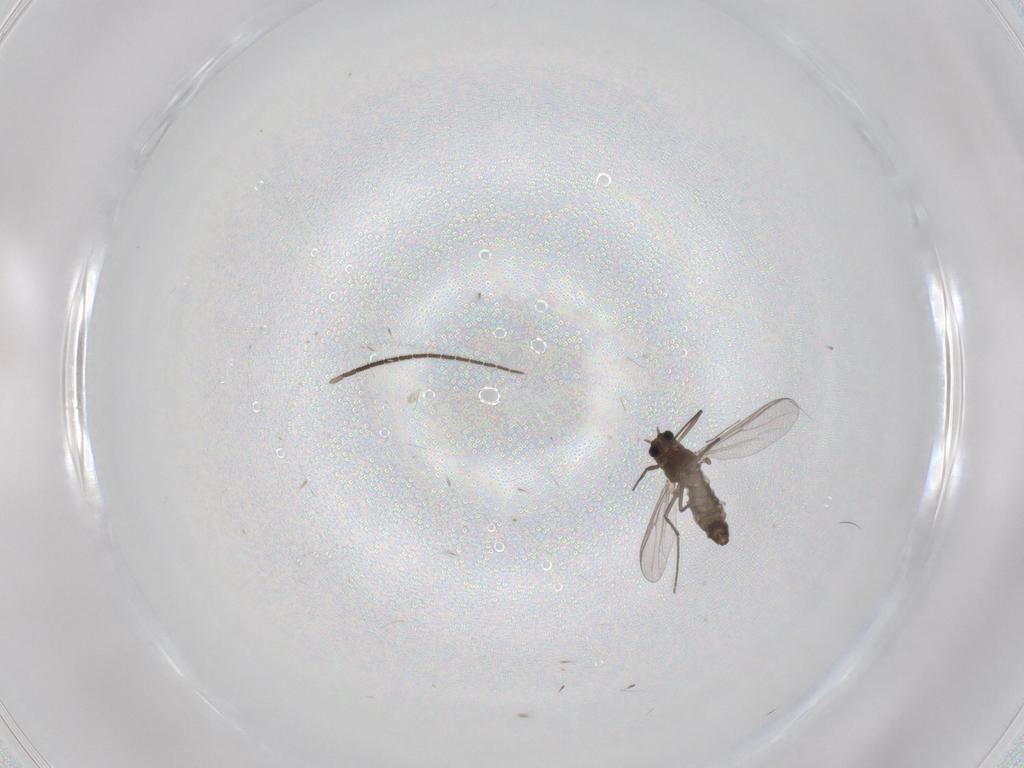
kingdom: Animalia
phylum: Arthropoda
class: Insecta
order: Diptera
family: Chironomidae
